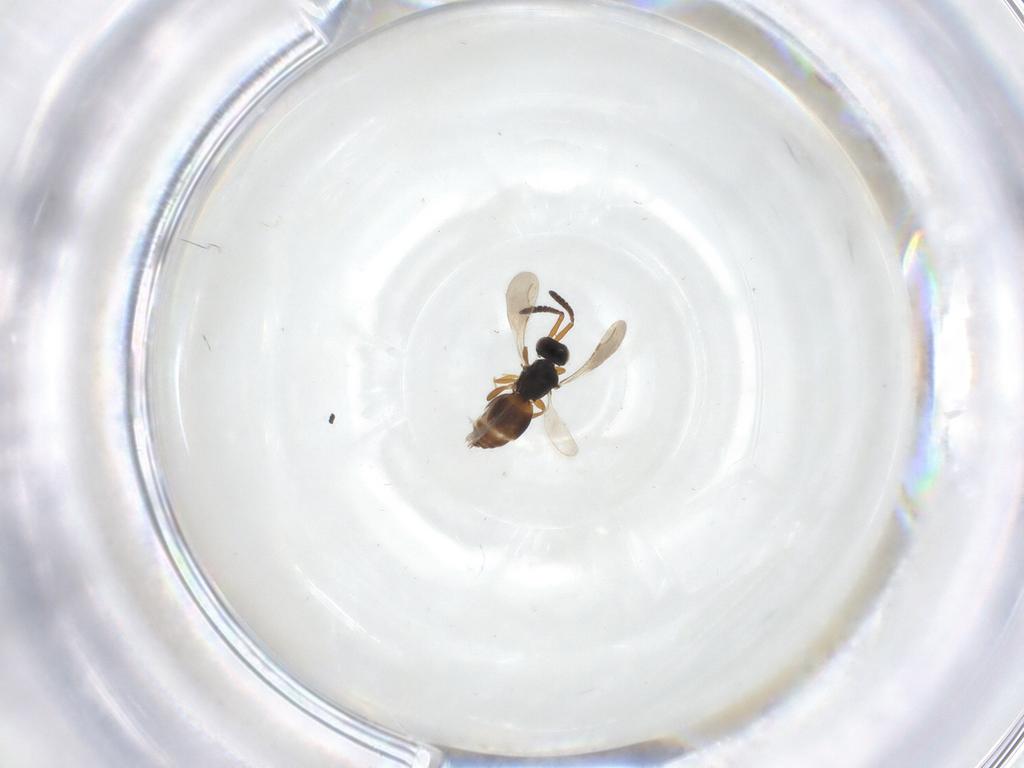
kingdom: Animalia
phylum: Arthropoda
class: Insecta
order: Hymenoptera
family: Ceraphronidae
